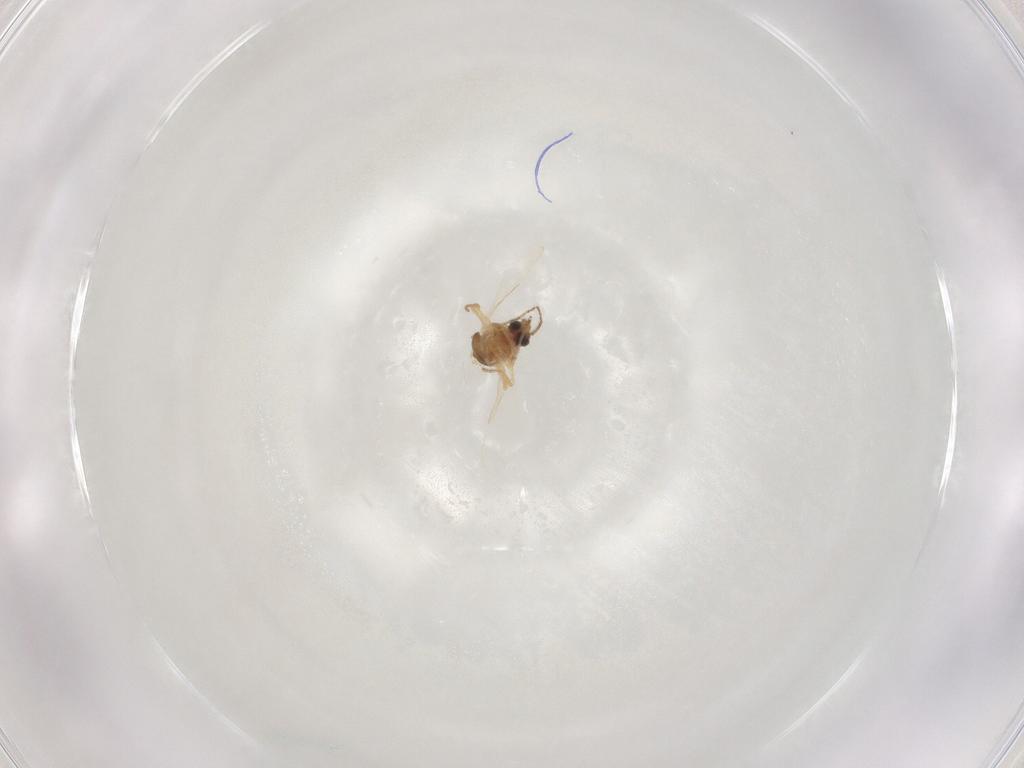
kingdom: Animalia
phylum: Arthropoda
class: Insecta
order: Diptera
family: Ceratopogonidae
